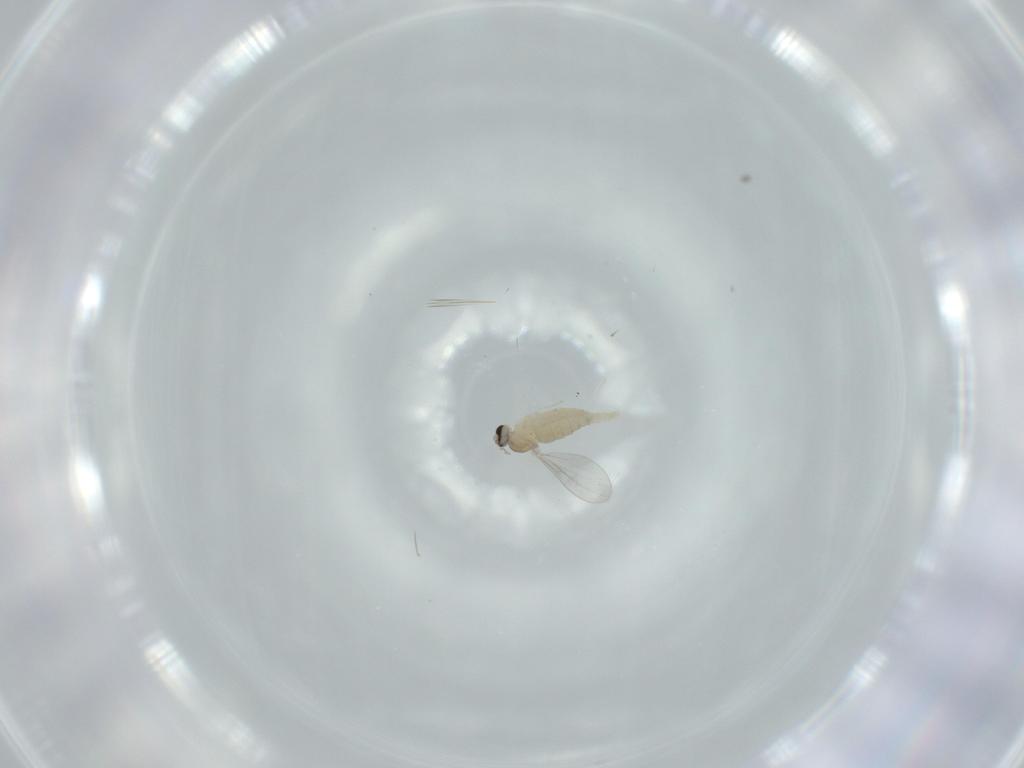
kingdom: Animalia
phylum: Arthropoda
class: Insecta
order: Diptera
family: Cecidomyiidae
